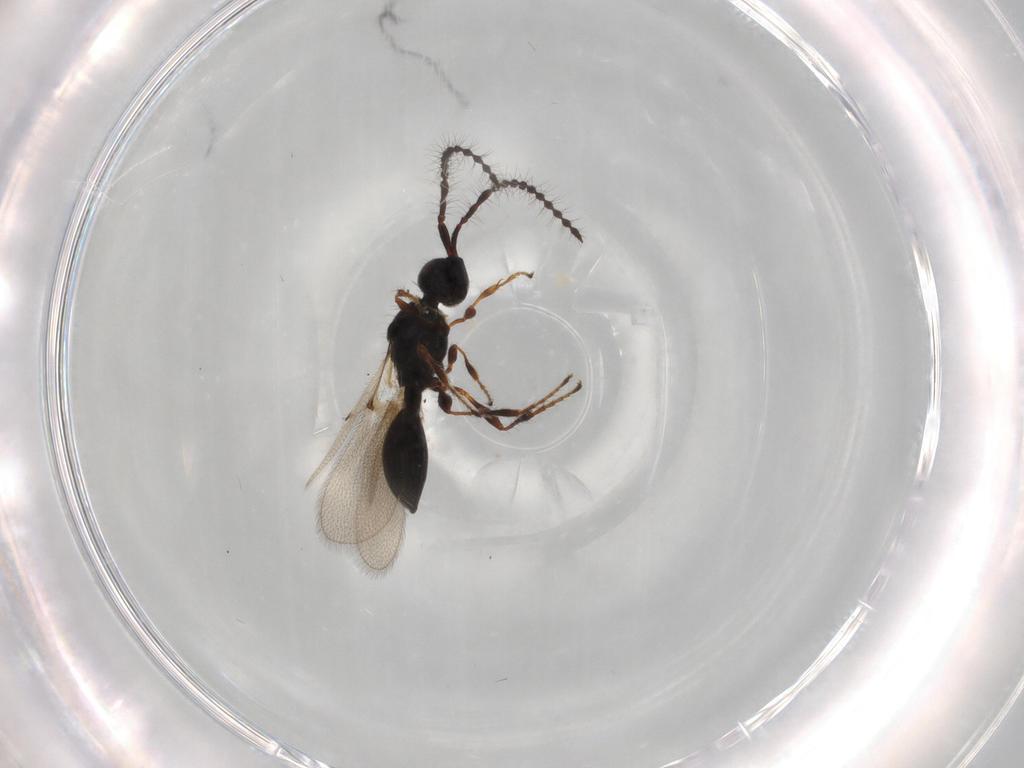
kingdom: Animalia
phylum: Arthropoda
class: Insecta
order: Hymenoptera
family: Diapriidae
